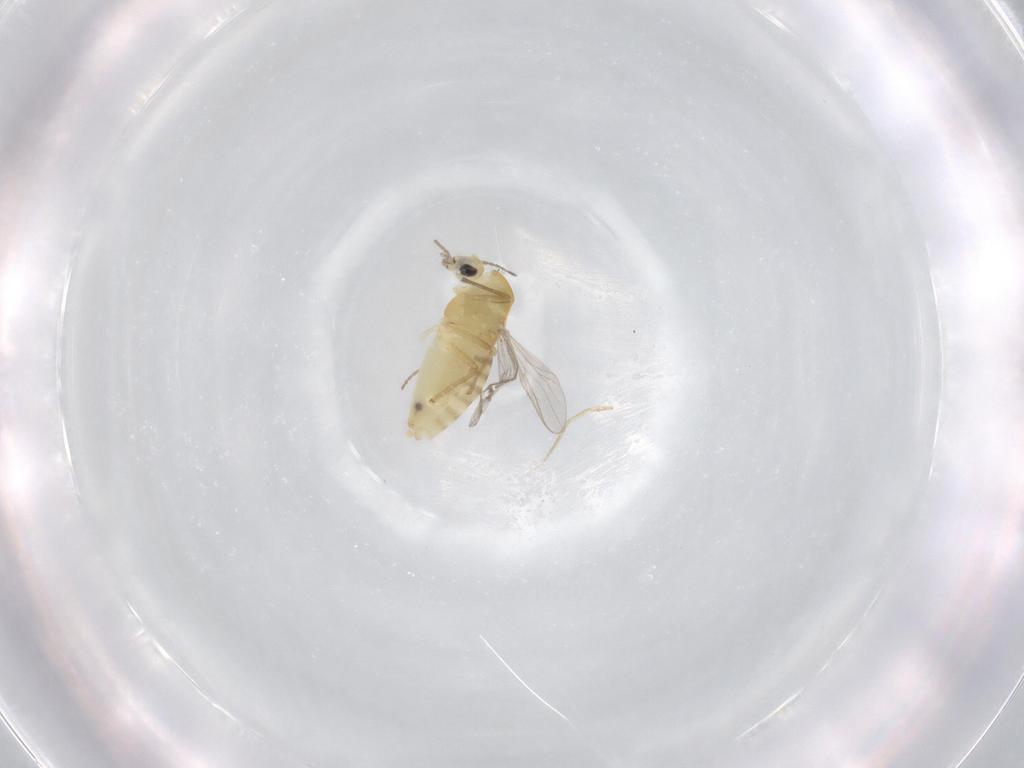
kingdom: Animalia
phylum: Arthropoda
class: Insecta
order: Diptera
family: Chironomidae
